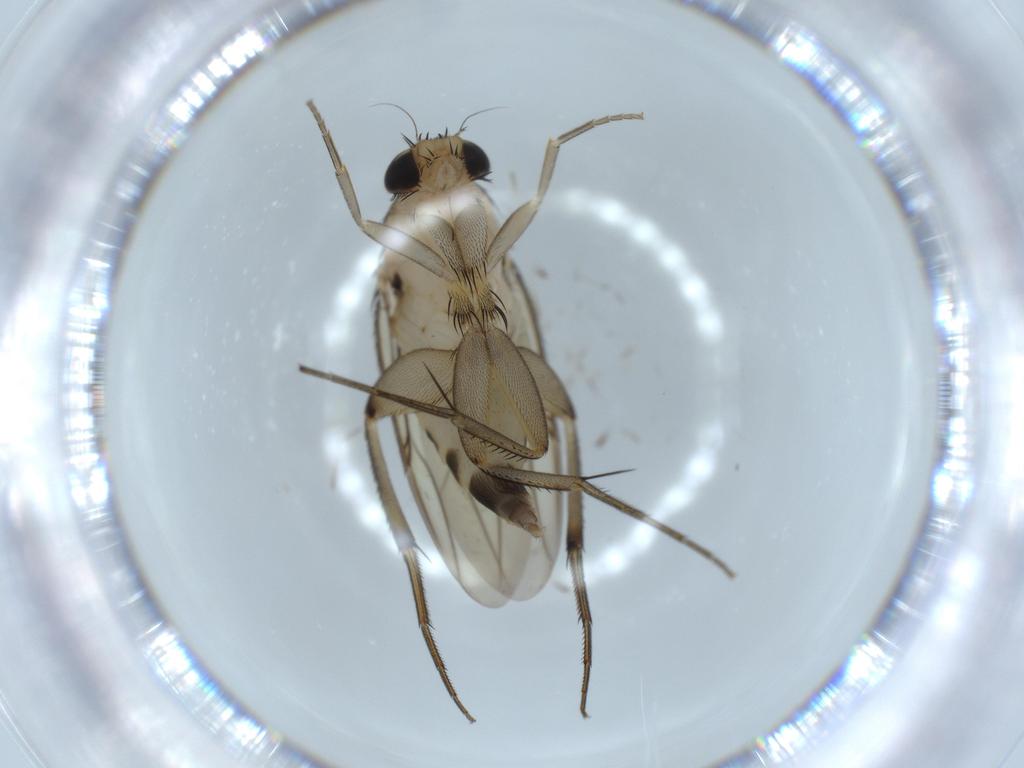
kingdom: Animalia
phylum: Arthropoda
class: Insecta
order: Diptera
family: Phoridae
